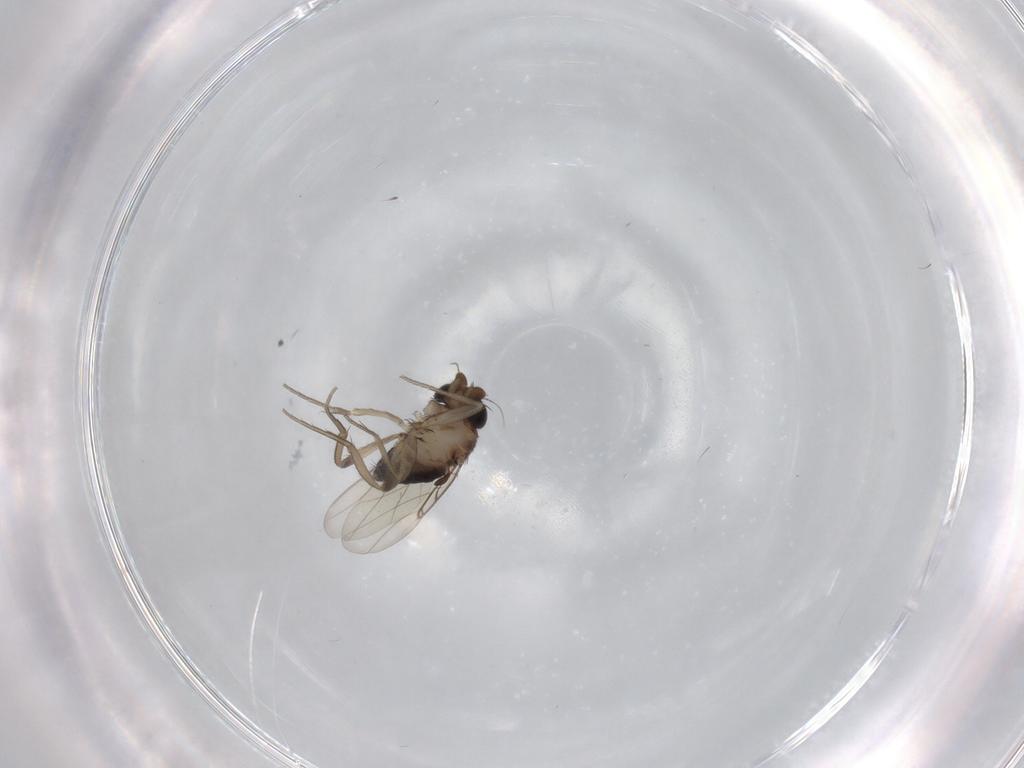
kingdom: Animalia
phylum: Arthropoda
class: Insecta
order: Diptera
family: Phoridae
